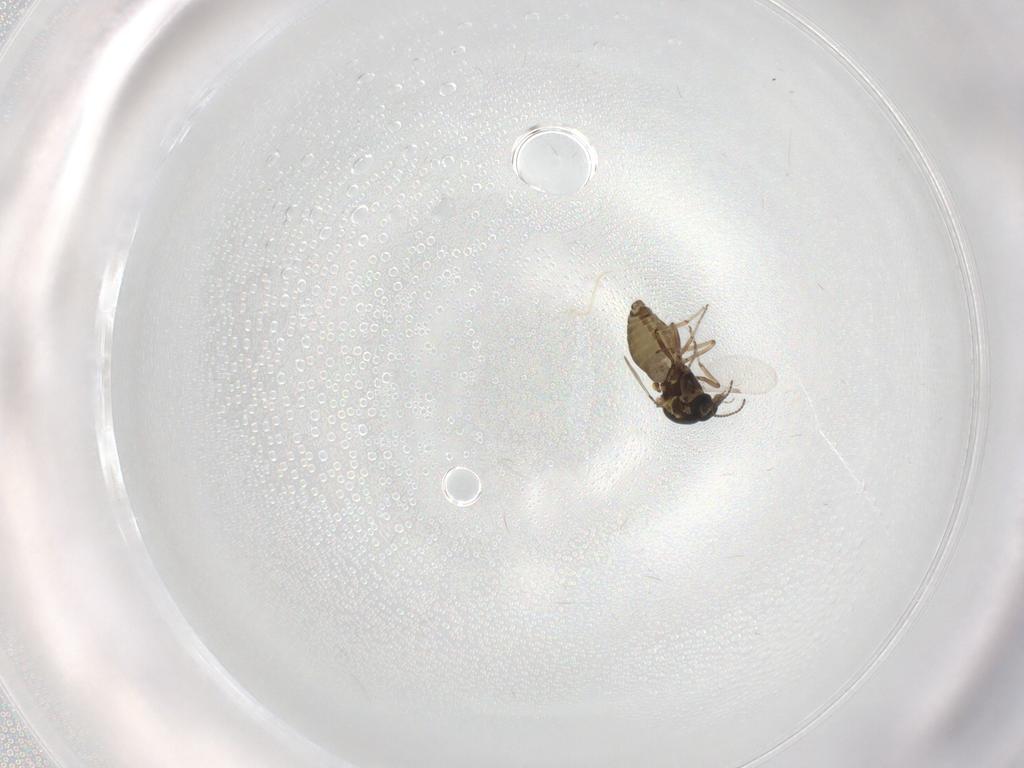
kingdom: Animalia
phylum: Arthropoda
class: Insecta
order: Diptera
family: Ceratopogonidae
